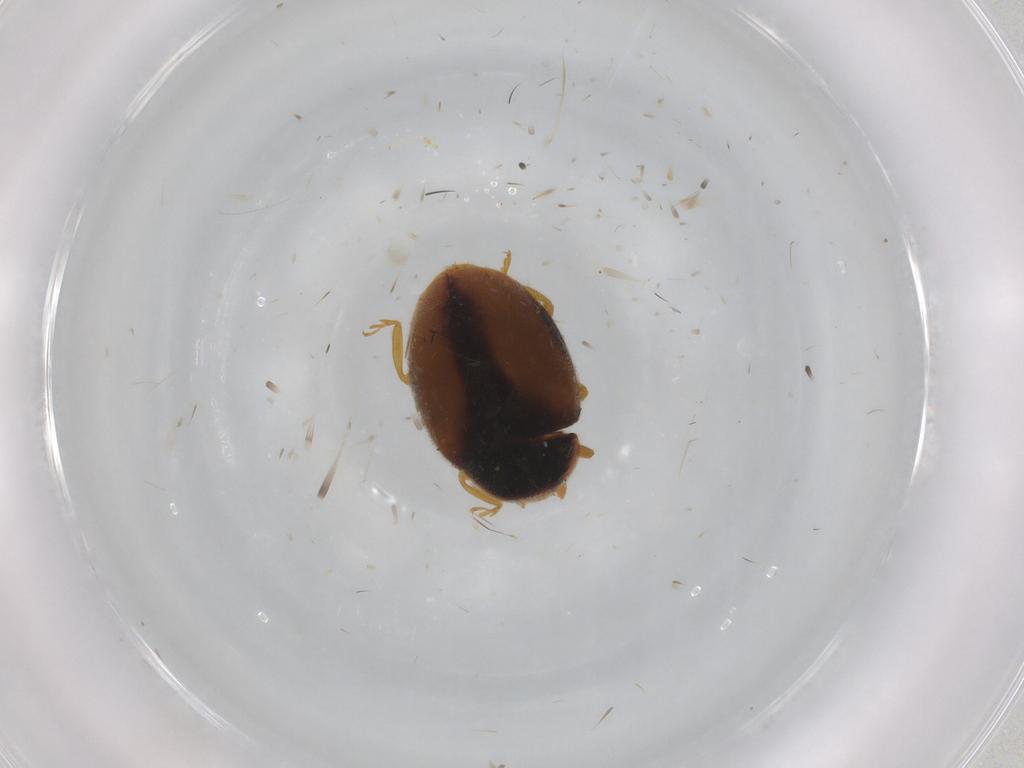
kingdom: Animalia
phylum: Arthropoda
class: Insecta
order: Coleoptera
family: Coccinellidae
